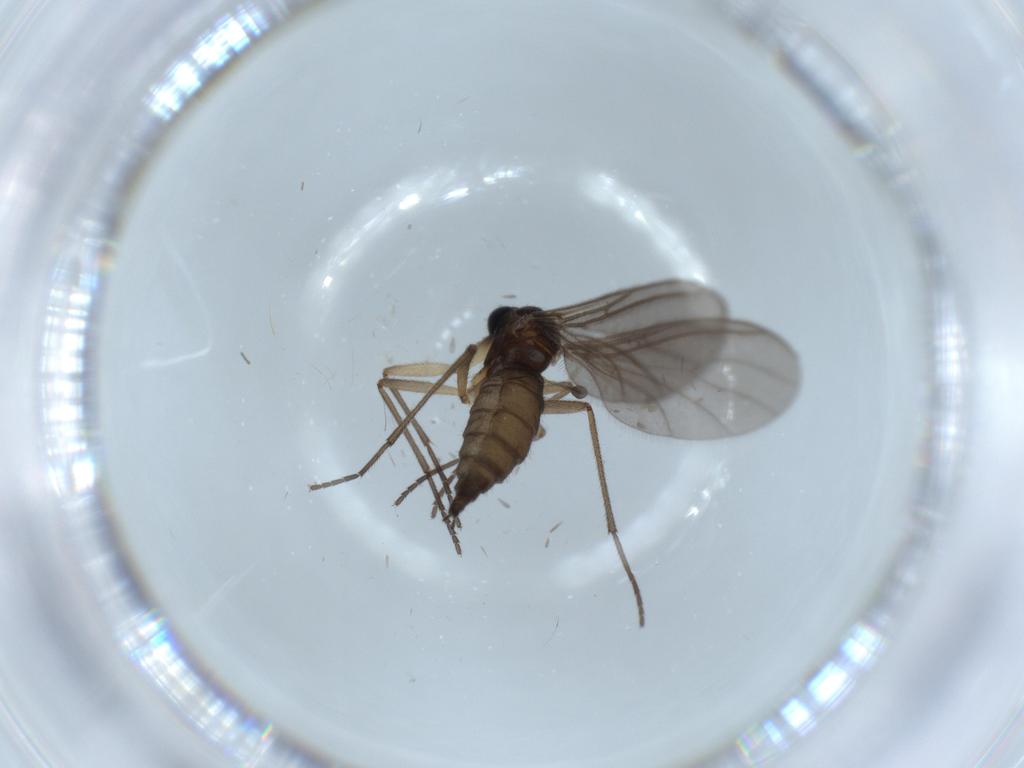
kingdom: Animalia
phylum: Arthropoda
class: Insecta
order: Diptera
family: Sciaridae
